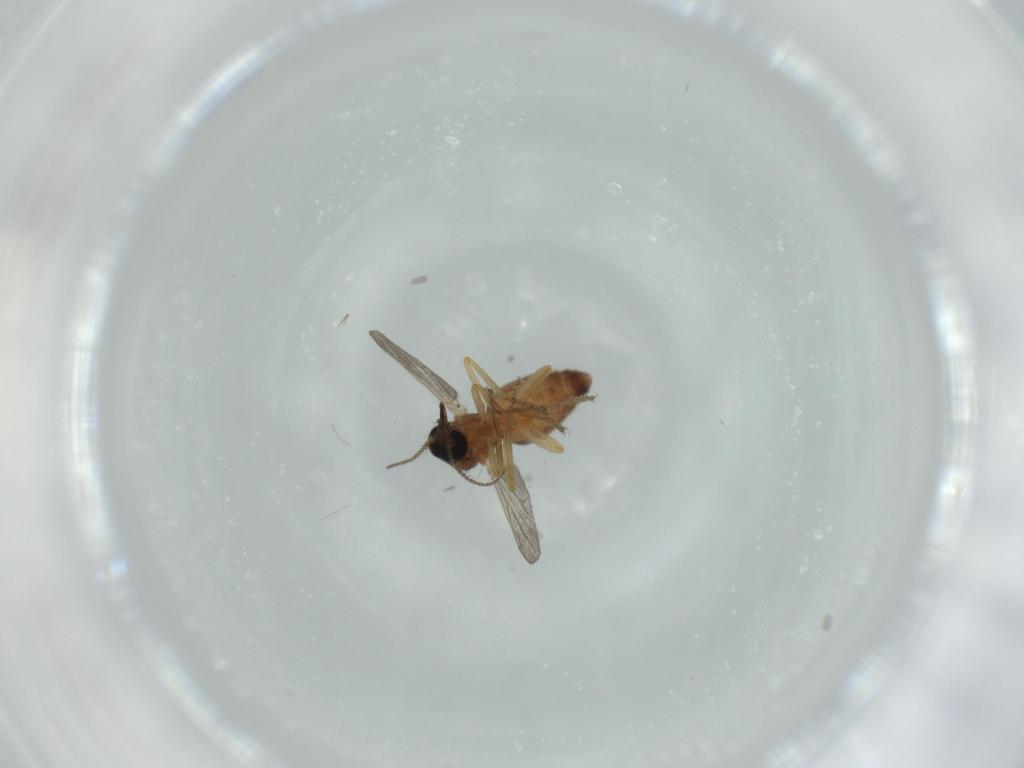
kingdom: Animalia
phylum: Arthropoda
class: Insecta
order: Diptera
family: Ceratopogonidae
